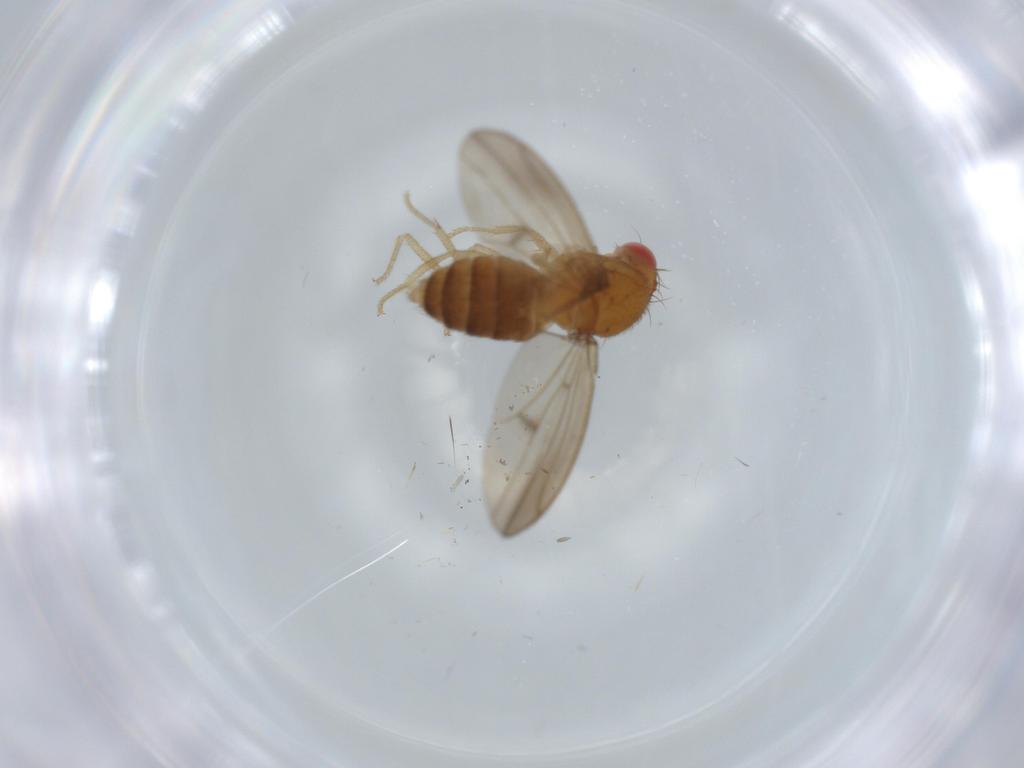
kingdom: Animalia
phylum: Arthropoda
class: Insecta
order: Diptera
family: Drosophilidae
